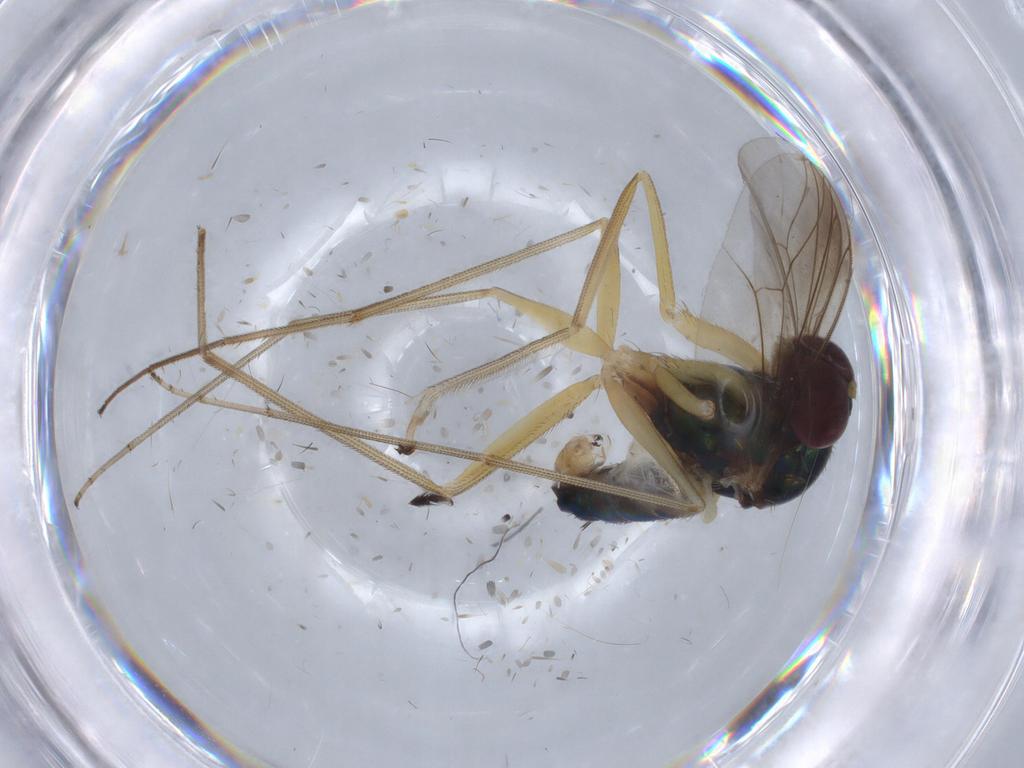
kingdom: Animalia
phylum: Arthropoda
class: Insecta
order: Diptera
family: Tachinidae
